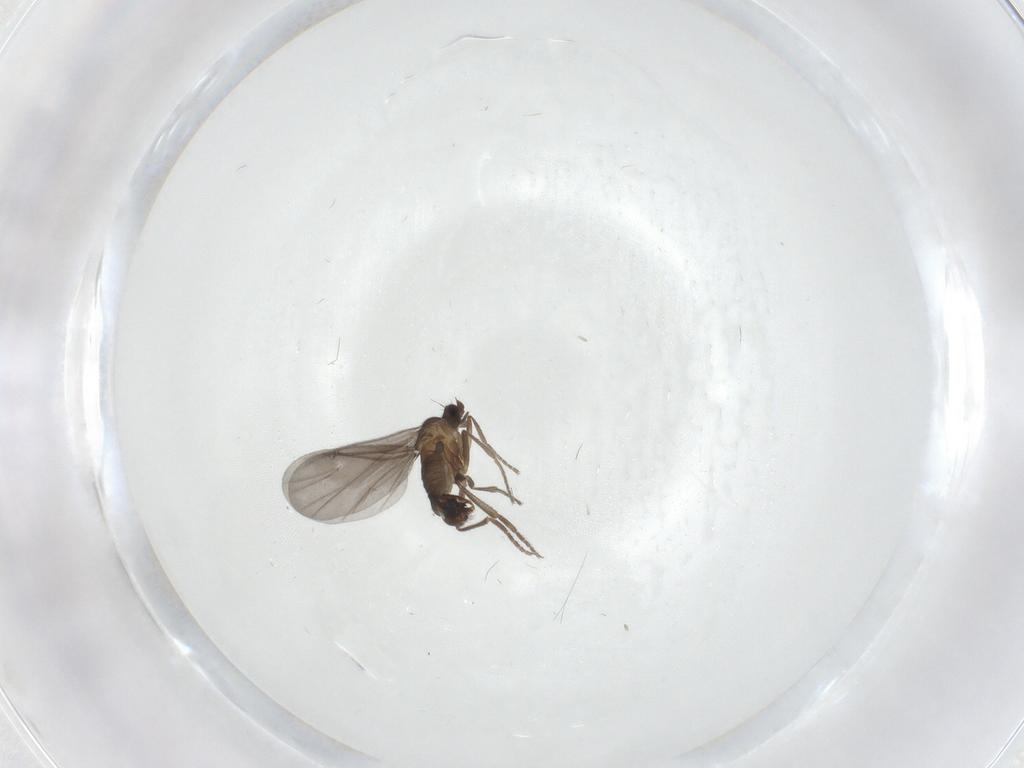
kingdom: Animalia
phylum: Arthropoda
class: Insecta
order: Diptera
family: Phoridae
